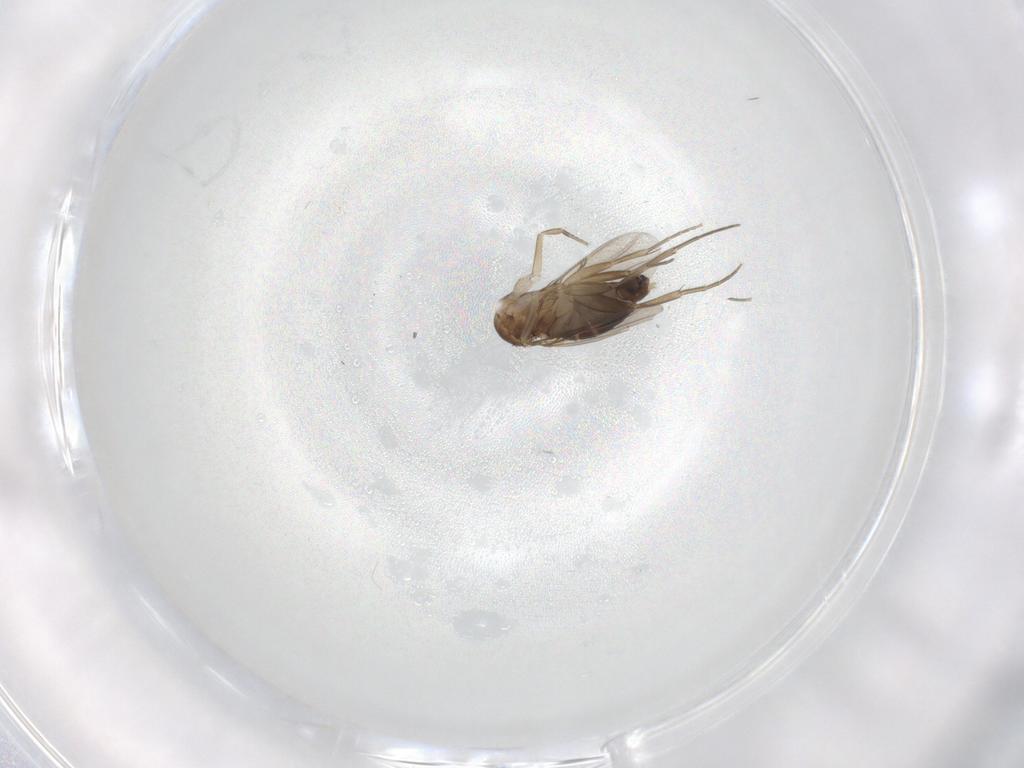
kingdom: Animalia
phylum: Arthropoda
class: Insecta
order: Diptera
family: Phoridae
